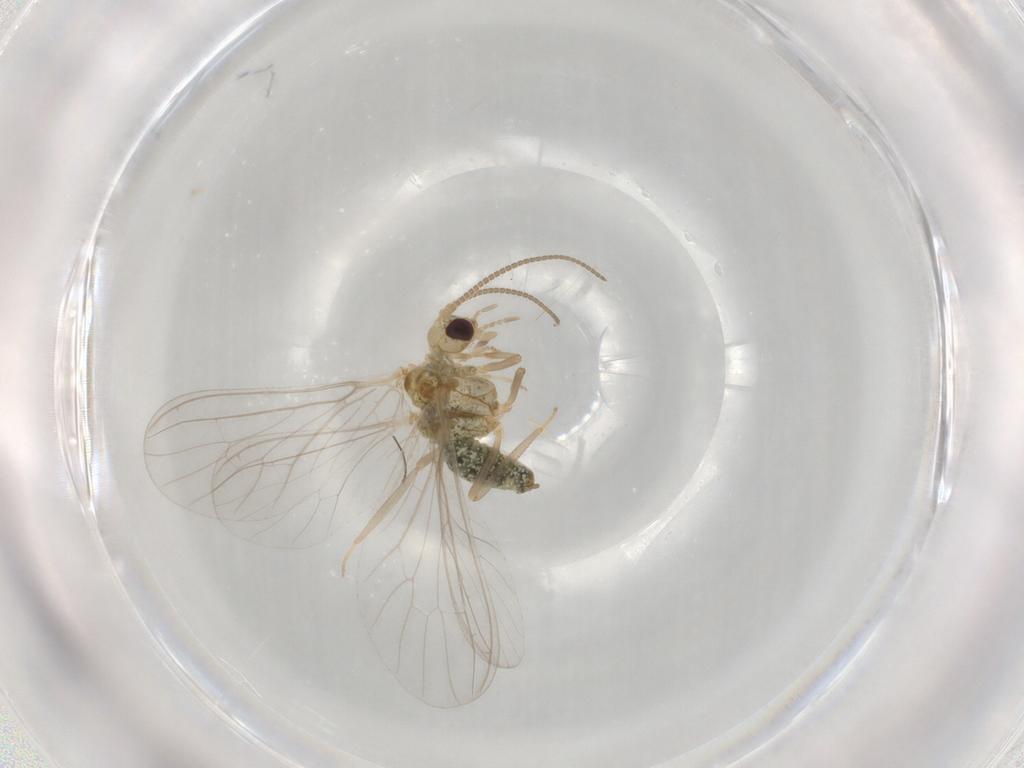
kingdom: Animalia
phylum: Arthropoda
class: Insecta
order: Neuroptera
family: Coniopterygidae
